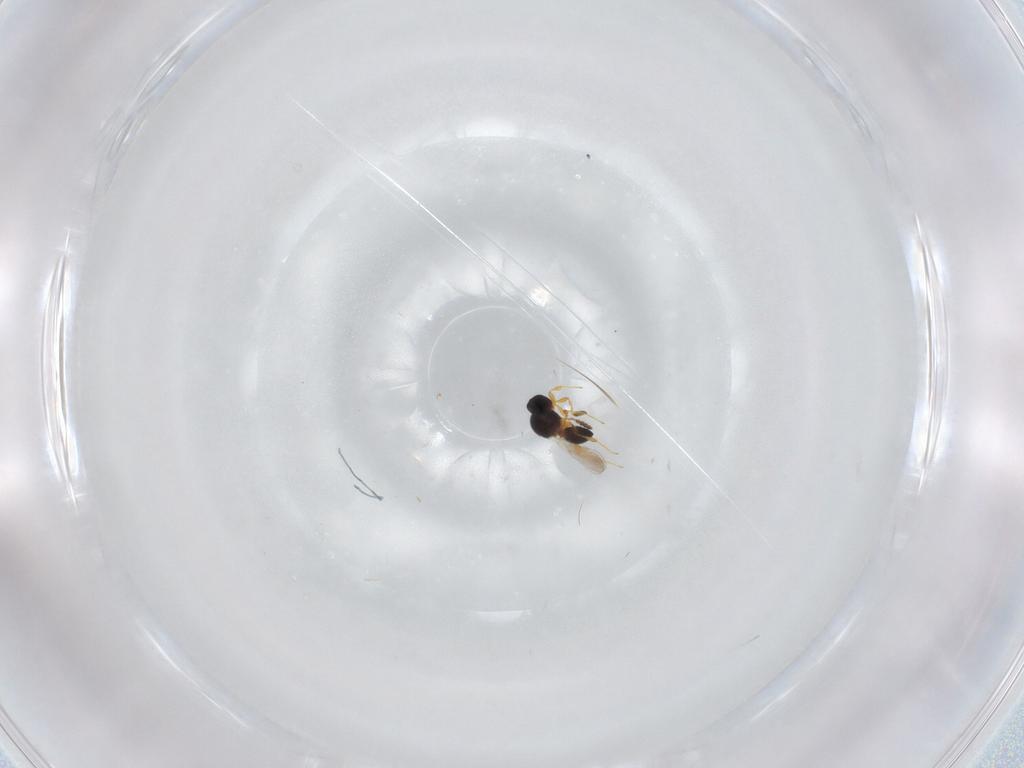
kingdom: Animalia
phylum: Arthropoda
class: Insecta
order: Hymenoptera
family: Platygastridae
